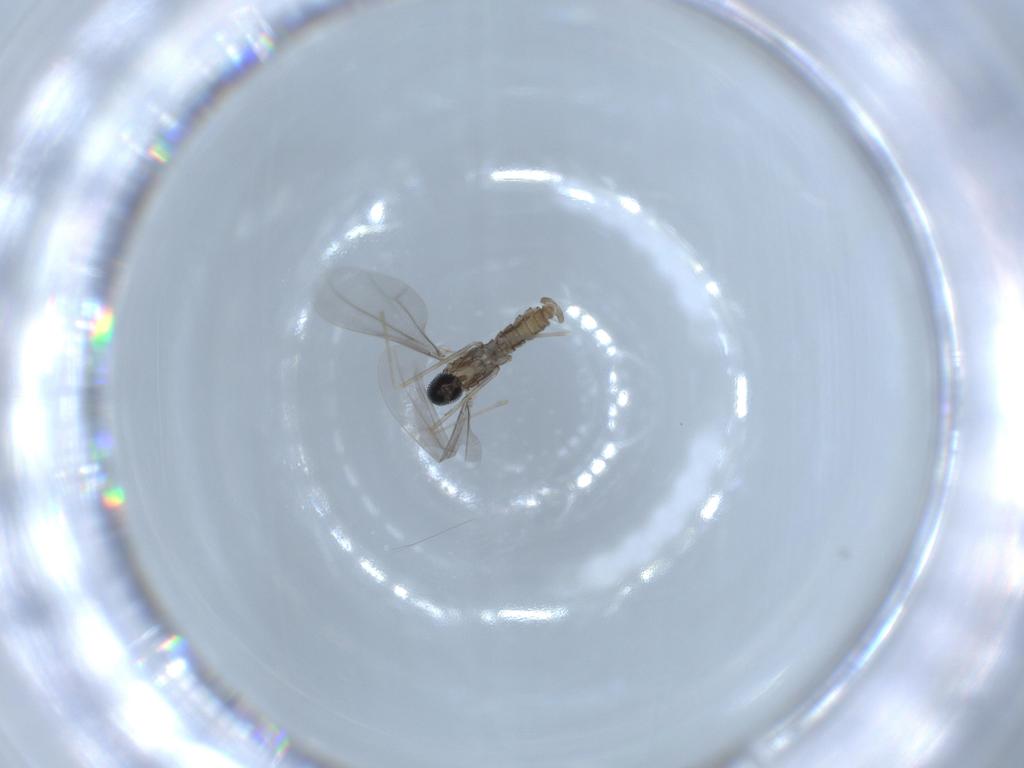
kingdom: Animalia
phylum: Arthropoda
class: Insecta
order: Diptera
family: Cecidomyiidae
